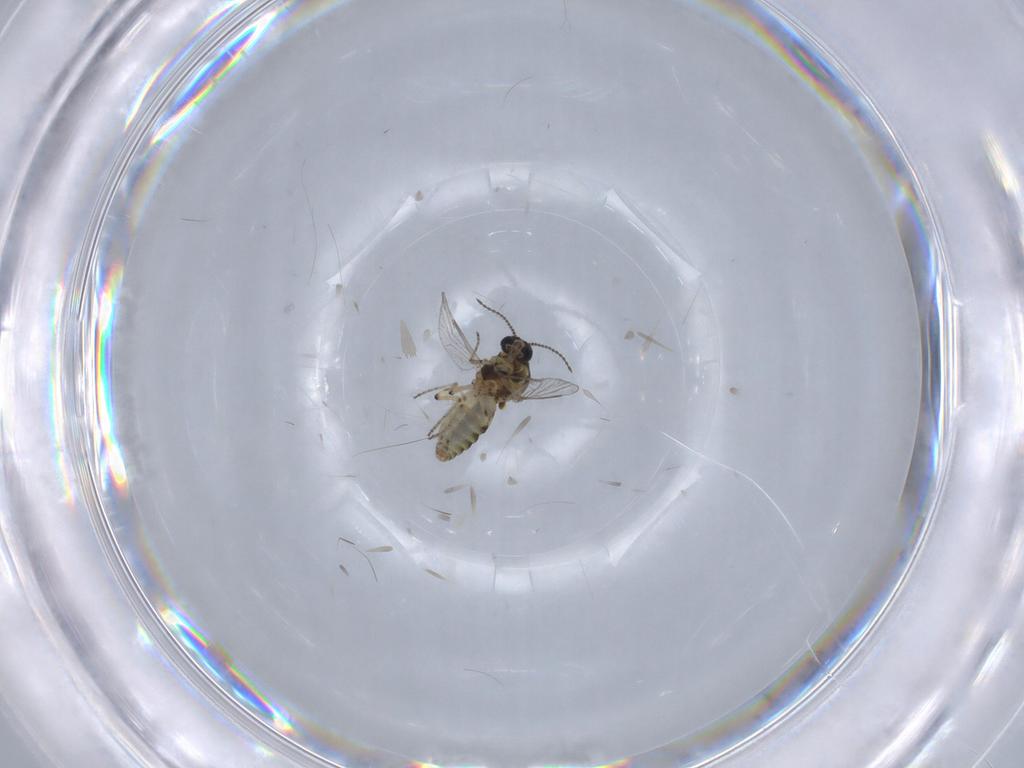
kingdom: Animalia
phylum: Arthropoda
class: Insecta
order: Diptera
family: Ceratopogonidae
